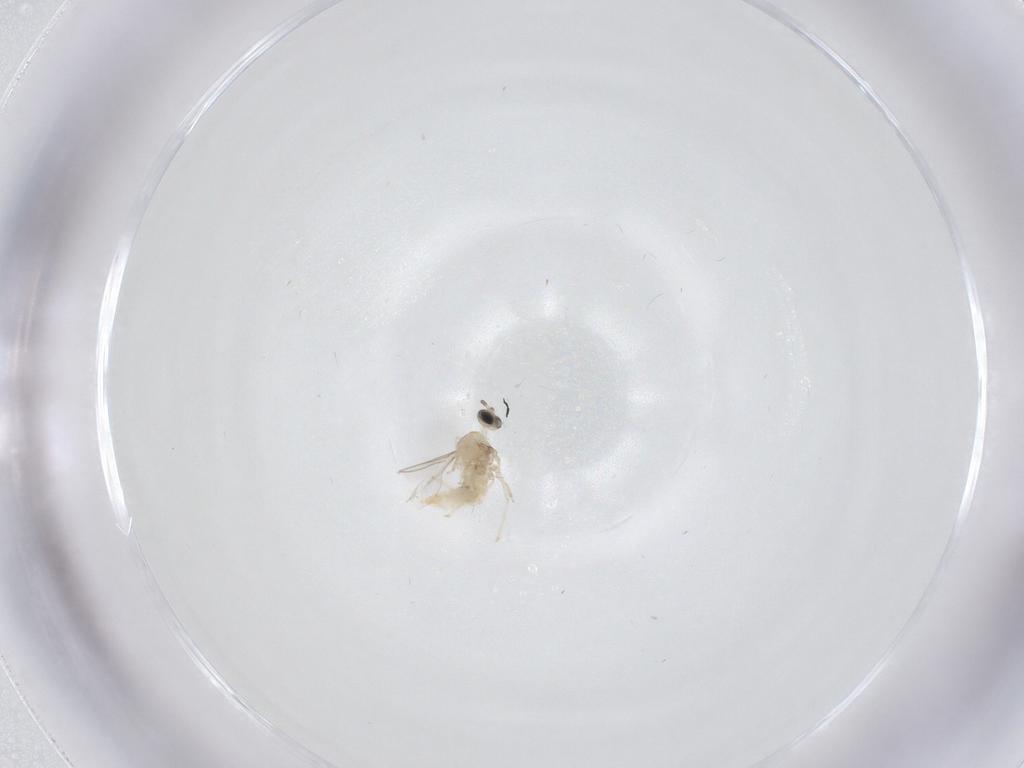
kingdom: Animalia
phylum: Arthropoda
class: Insecta
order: Diptera
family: Cecidomyiidae
